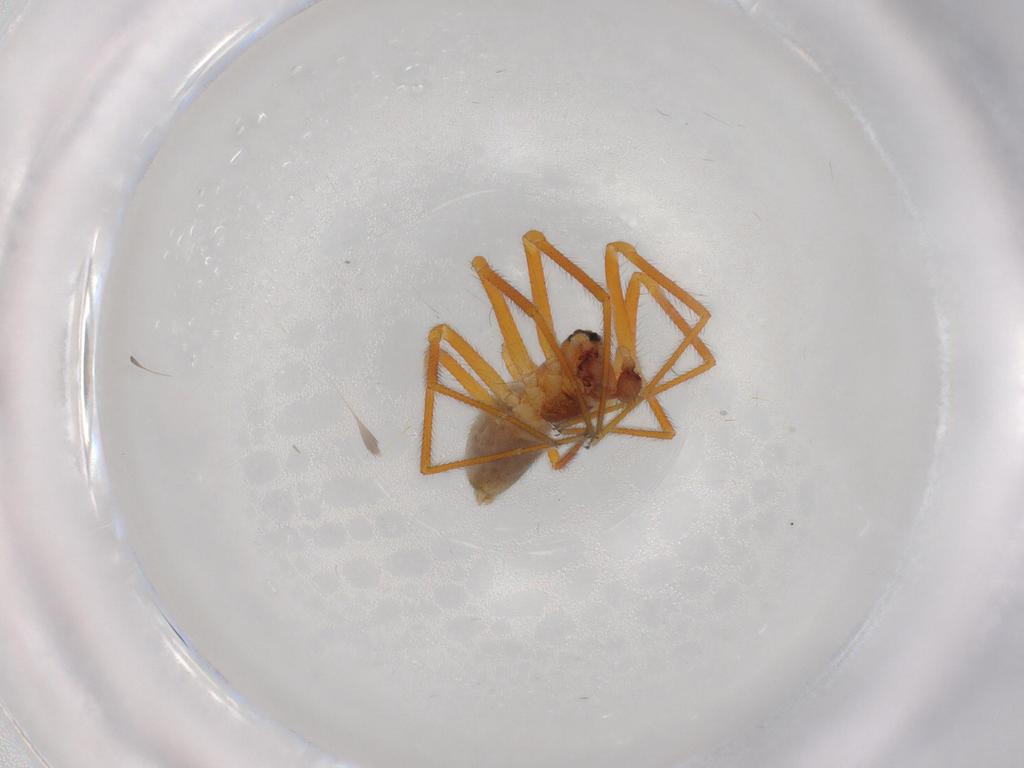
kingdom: Animalia
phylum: Arthropoda
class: Arachnida
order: Araneae
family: Linyphiidae
